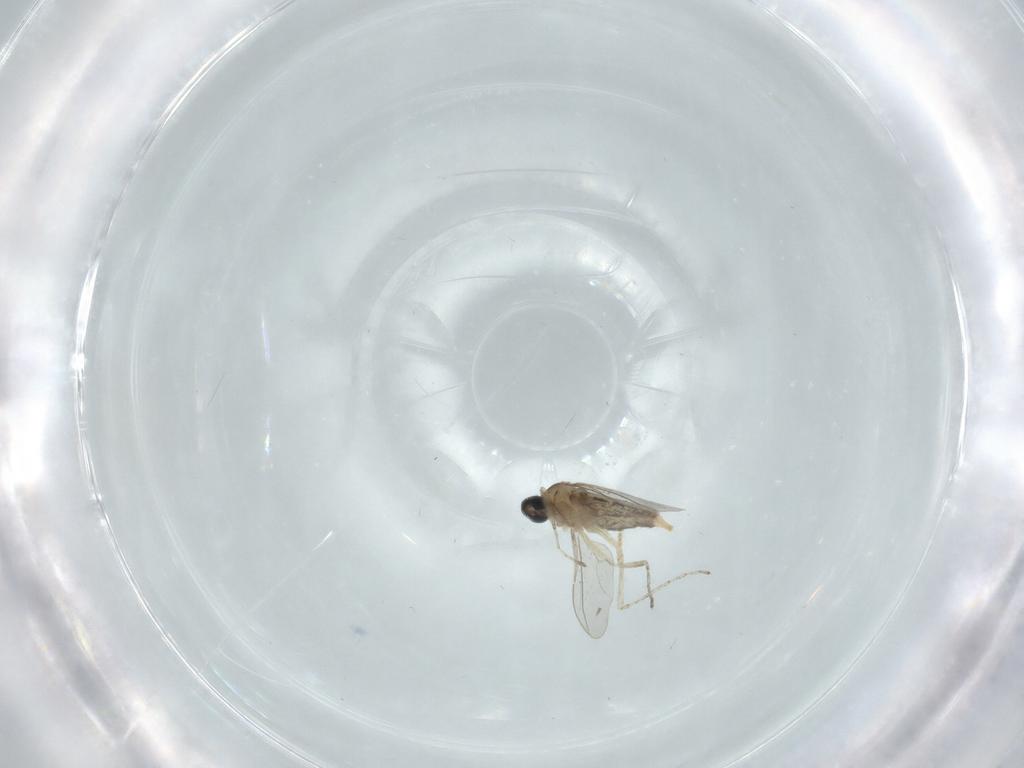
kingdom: Animalia
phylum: Arthropoda
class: Insecta
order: Diptera
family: Cecidomyiidae
